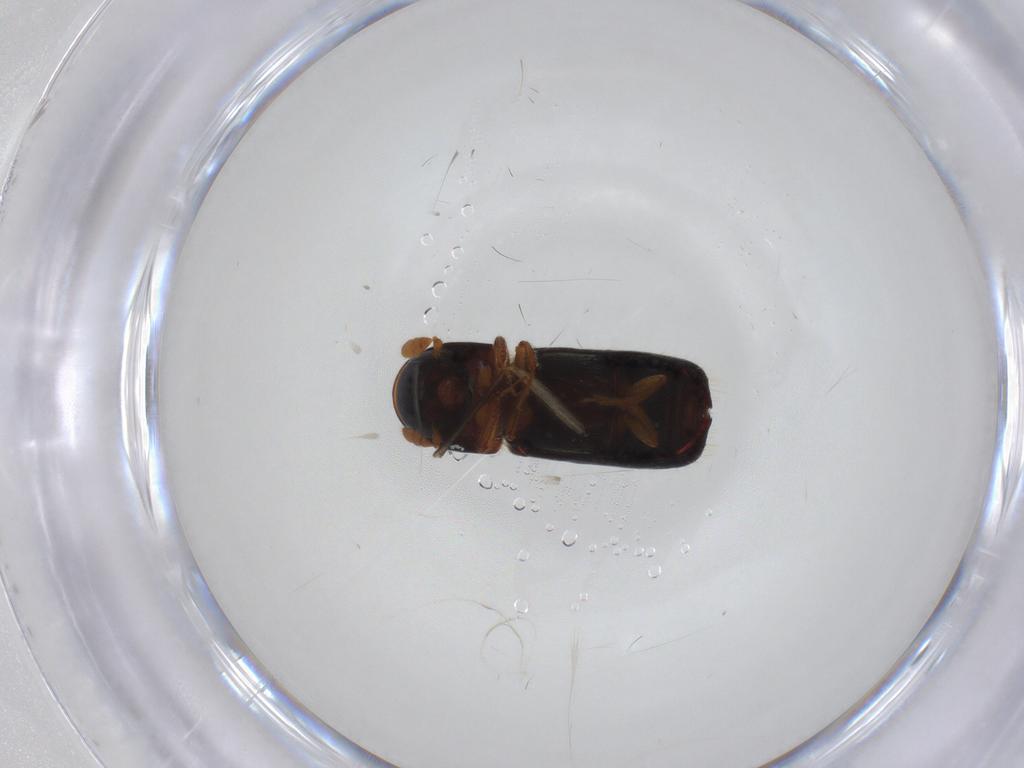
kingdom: Animalia
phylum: Arthropoda
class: Insecta
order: Coleoptera
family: Curculionidae
